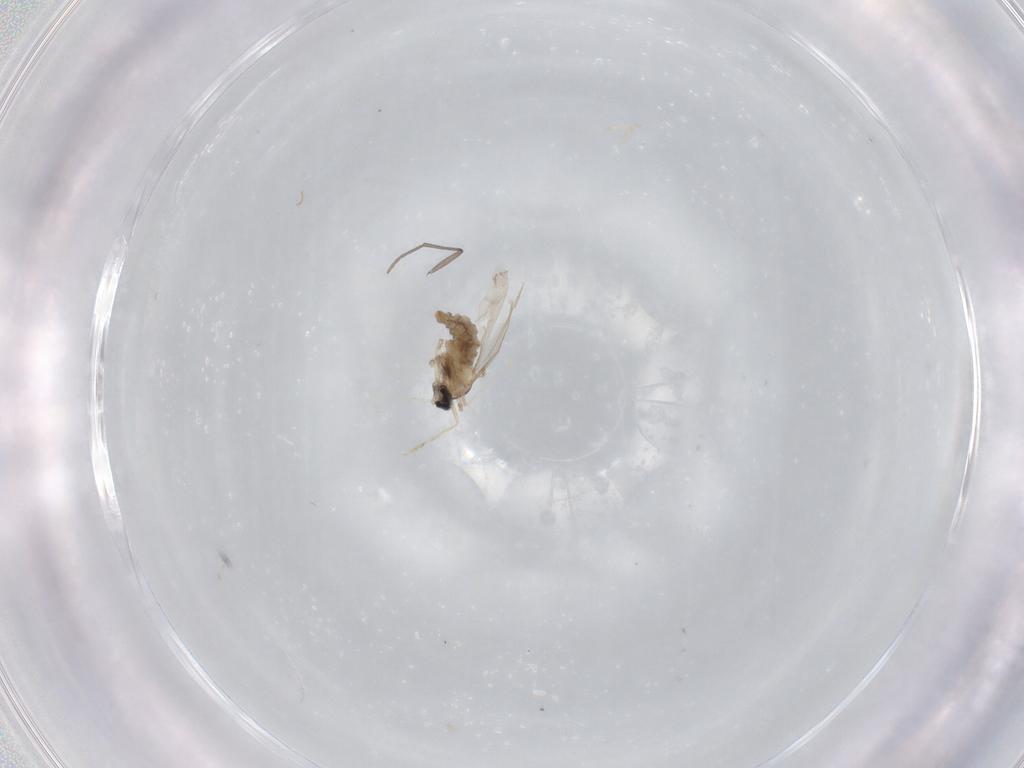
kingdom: Animalia
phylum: Arthropoda
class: Insecta
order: Diptera
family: Cecidomyiidae
